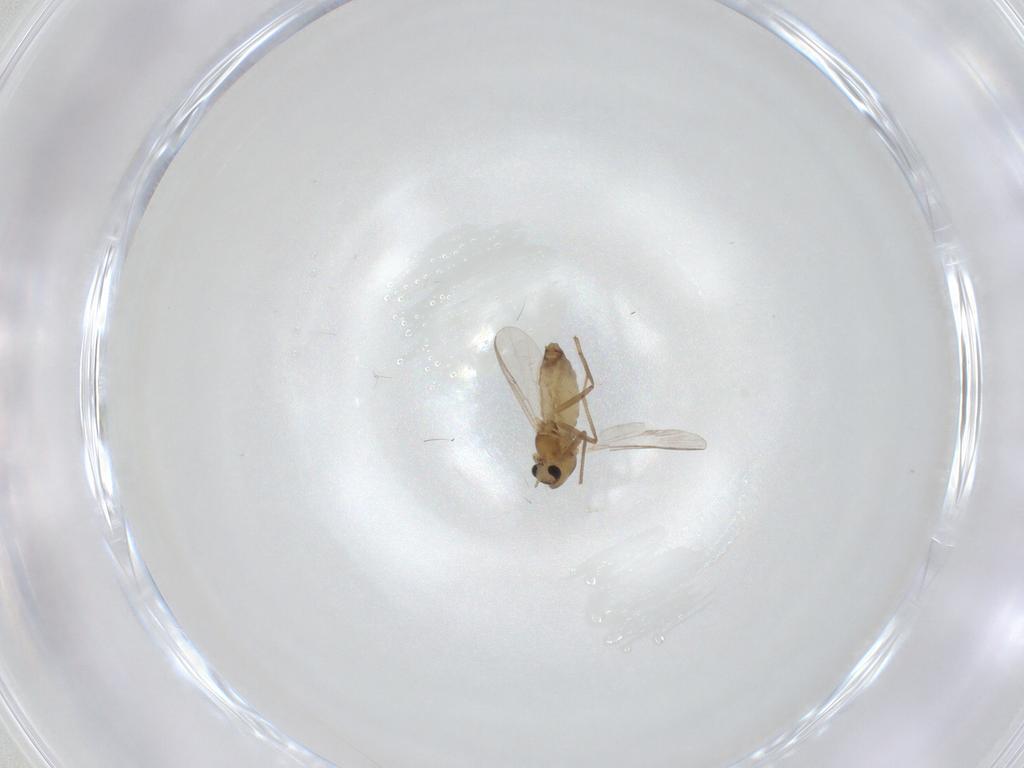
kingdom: Animalia
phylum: Arthropoda
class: Insecta
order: Diptera
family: Chironomidae
